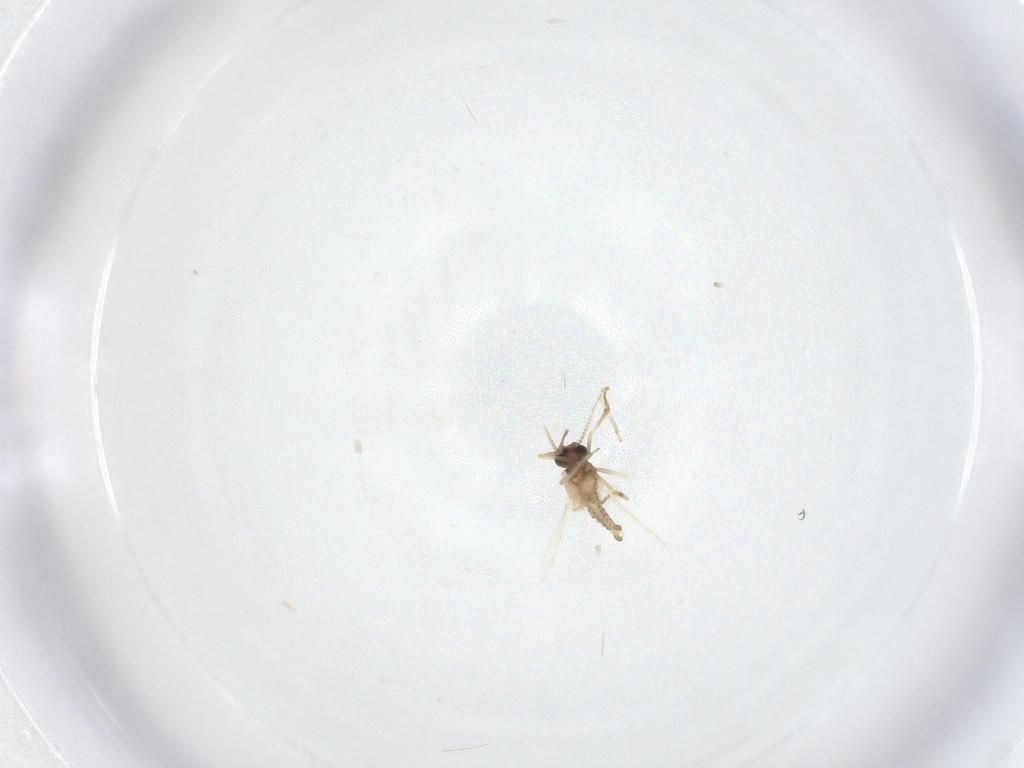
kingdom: Animalia
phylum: Arthropoda
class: Insecta
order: Diptera
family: Ceratopogonidae
